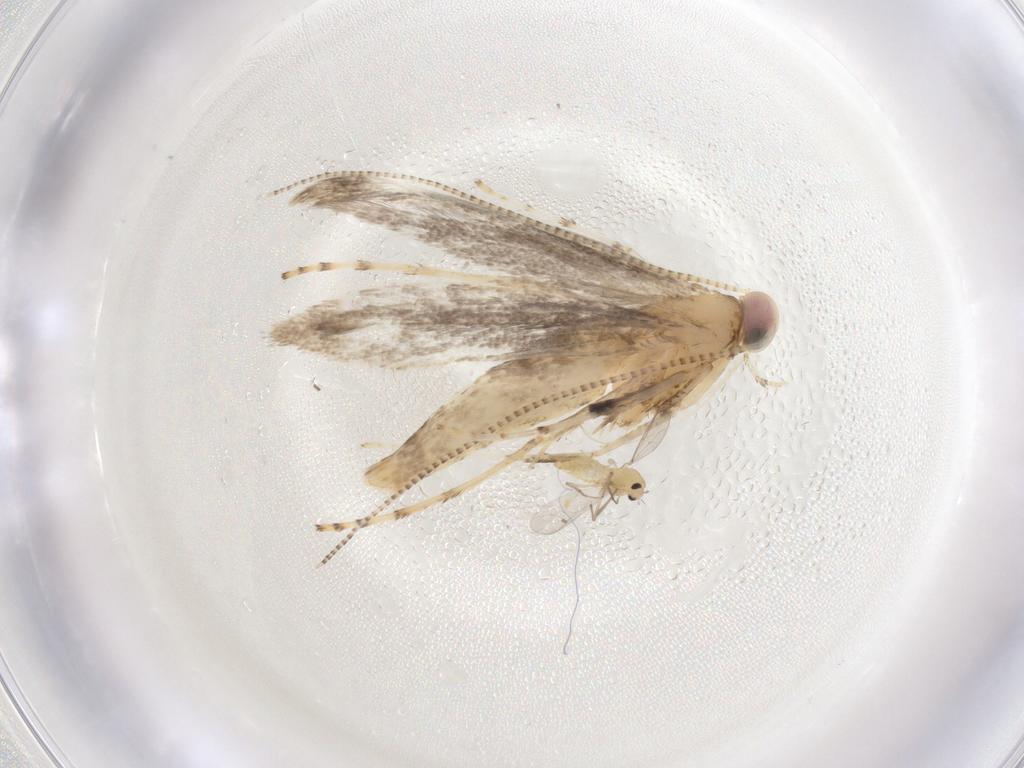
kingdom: Animalia
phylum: Arthropoda
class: Insecta
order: Diptera
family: Chironomidae
